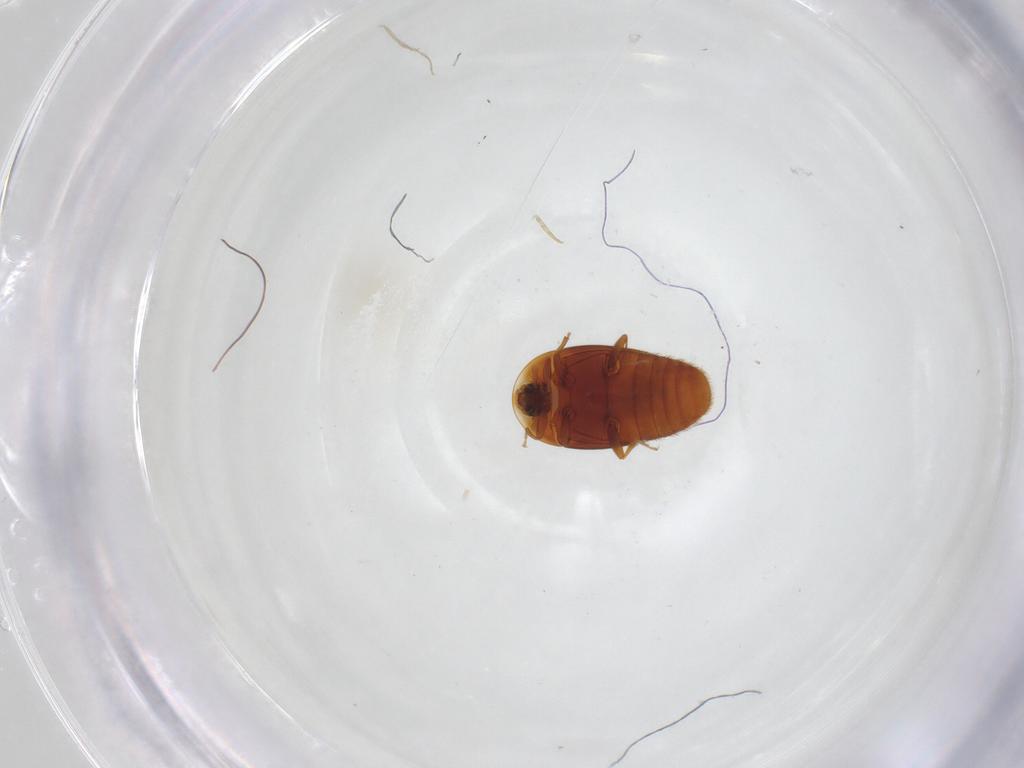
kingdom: Animalia
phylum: Arthropoda
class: Insecta
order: Coleoptera
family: Corylophidae
